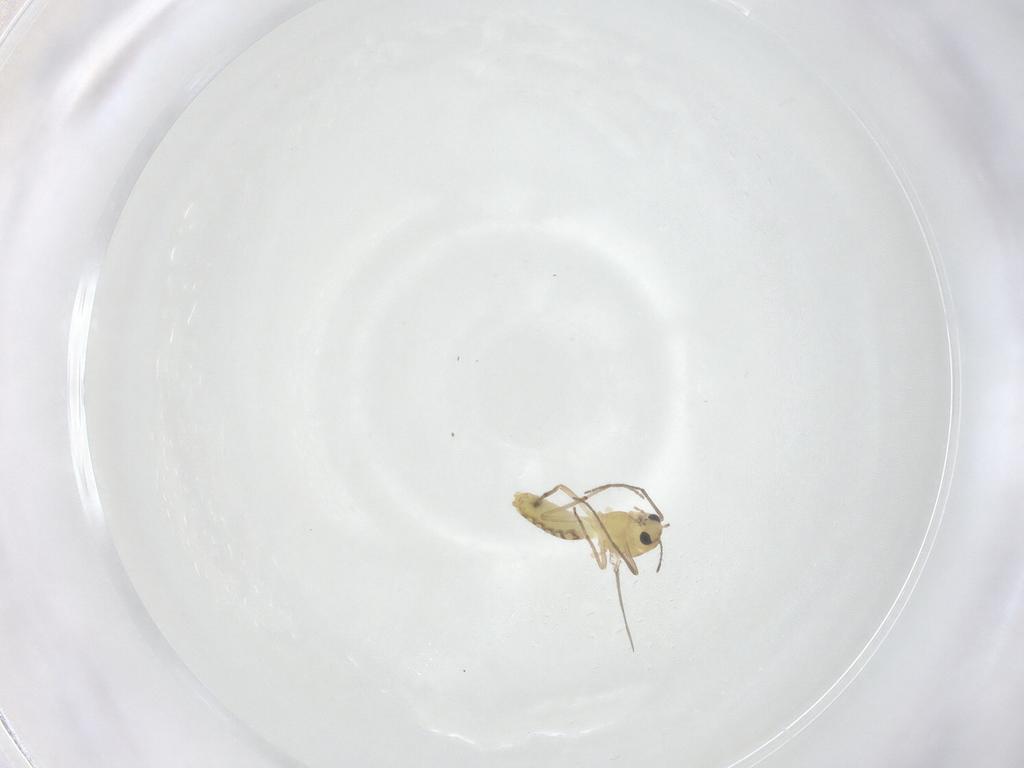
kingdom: Animalia
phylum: Arthropoda
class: Insecta
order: Diptera
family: Chironomidae
